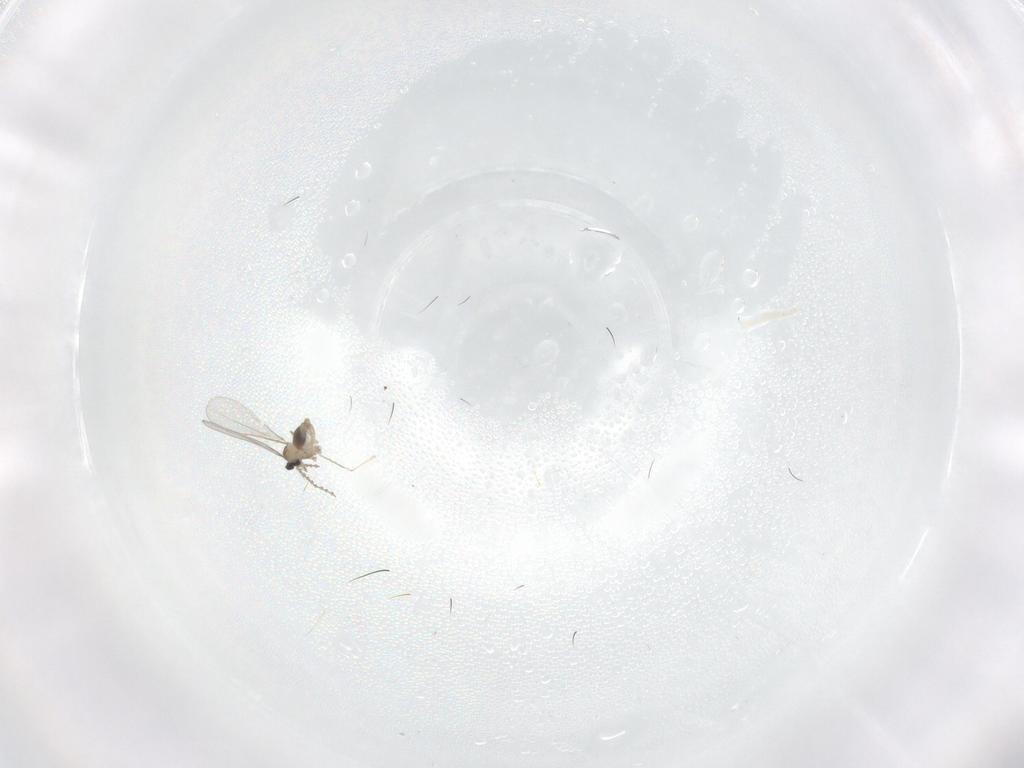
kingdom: Animalia
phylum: Arthropoda
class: Insecta
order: Diptera
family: Cecidomyiidae
